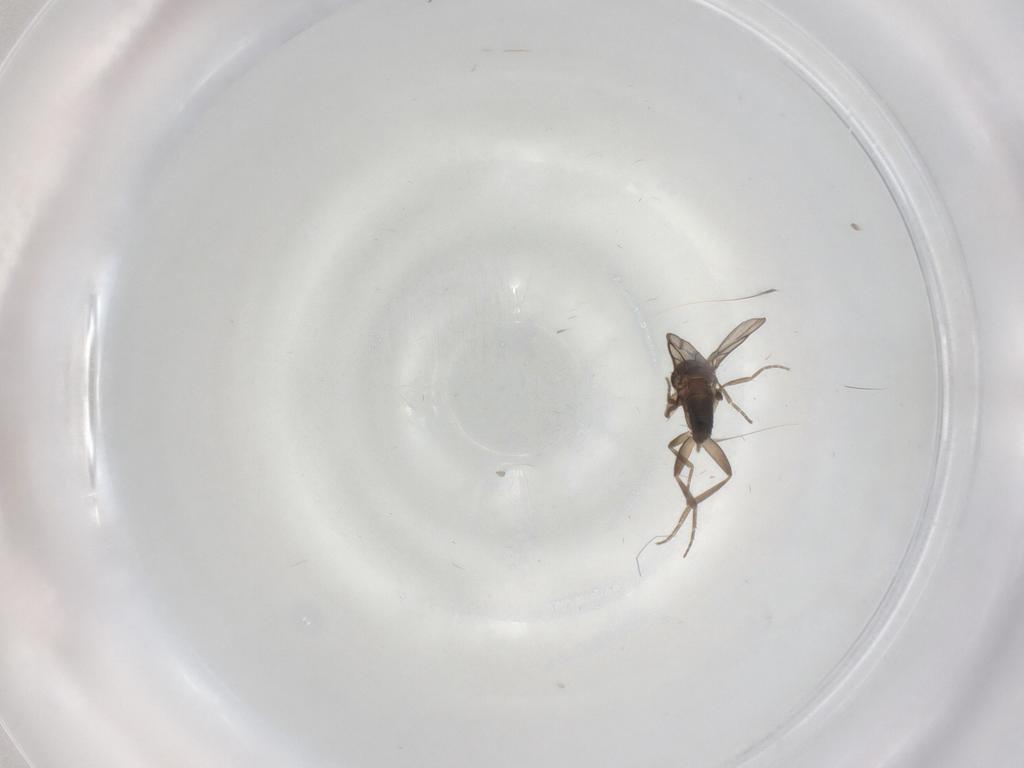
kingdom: Animalia
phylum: Arthropoda
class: Insecta
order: Diptera
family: Phoridae
